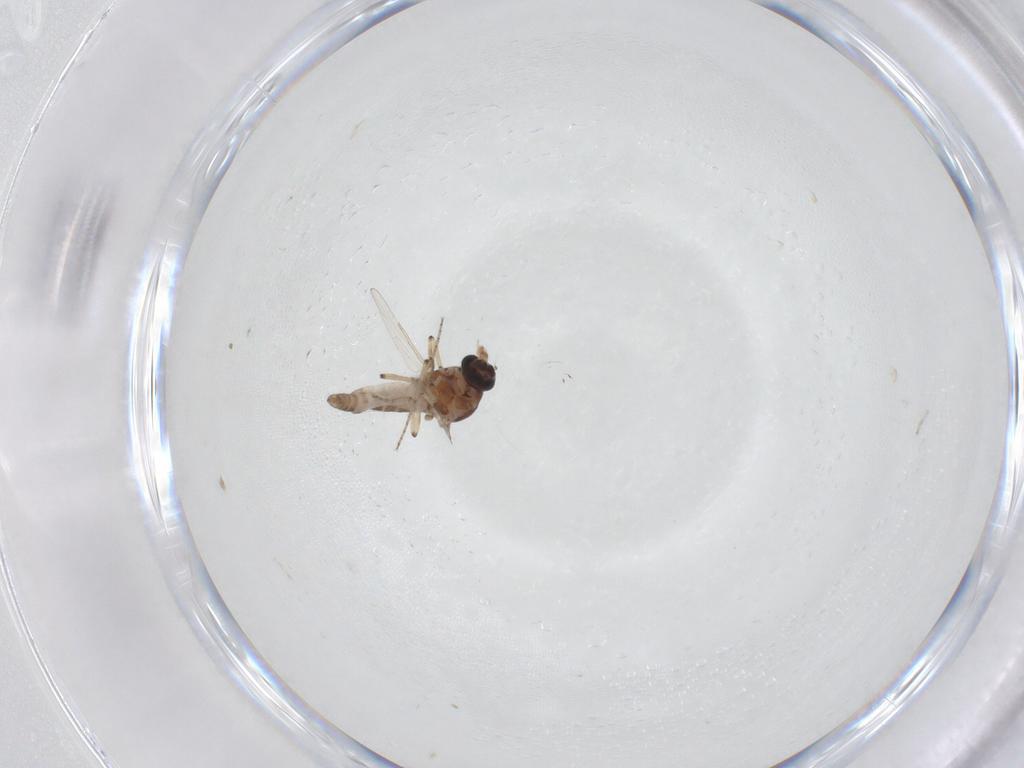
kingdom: Animalia
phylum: Arthropoda
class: Insecta
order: Diptera
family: Ceratopogonidae
